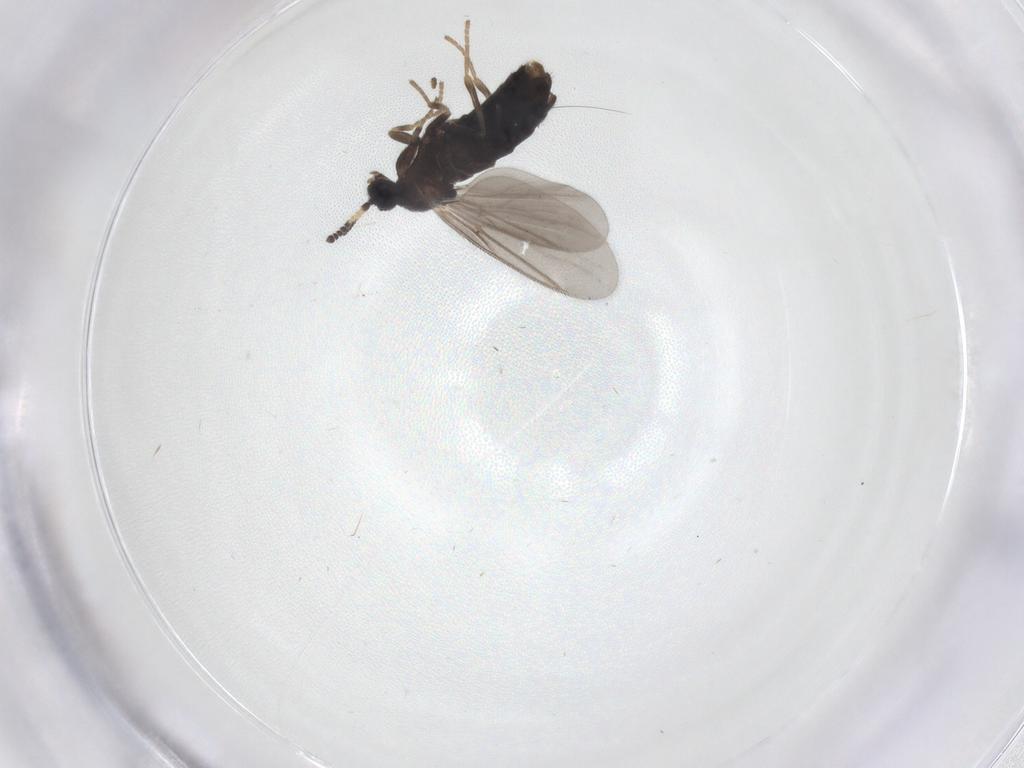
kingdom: Animalia
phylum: Arthropoda
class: Insecta
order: Diptera
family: Scatopsidae
